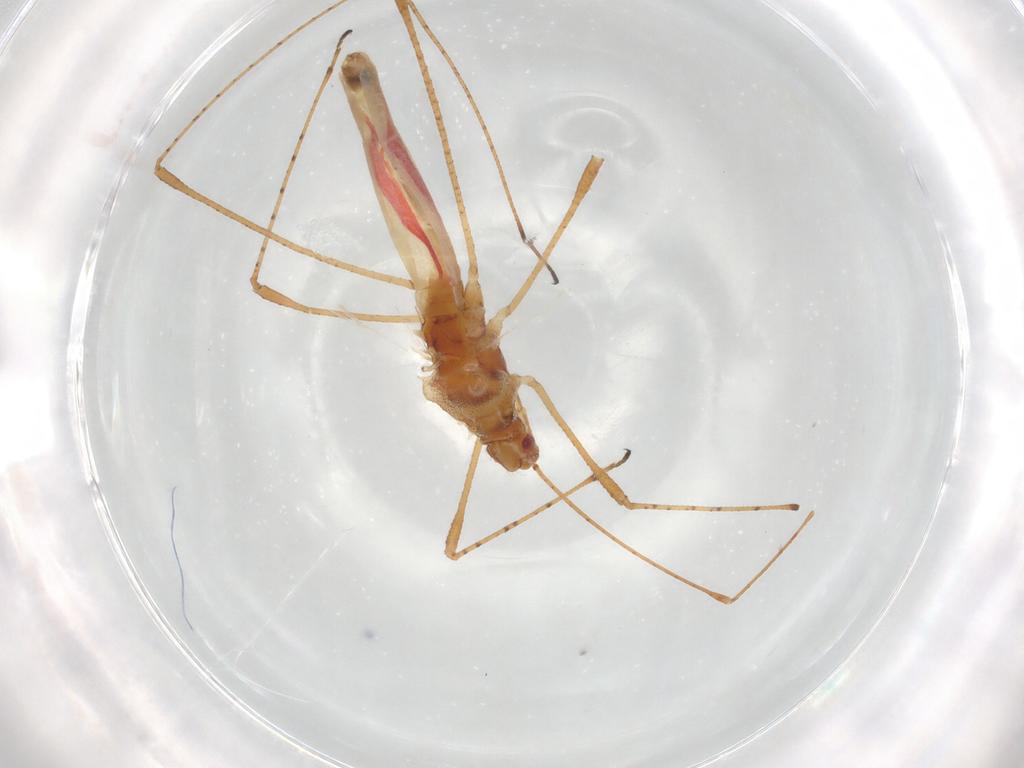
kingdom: Animalia
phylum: Arthropoda
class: Insecta
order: Hemiptera
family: Cymidae
